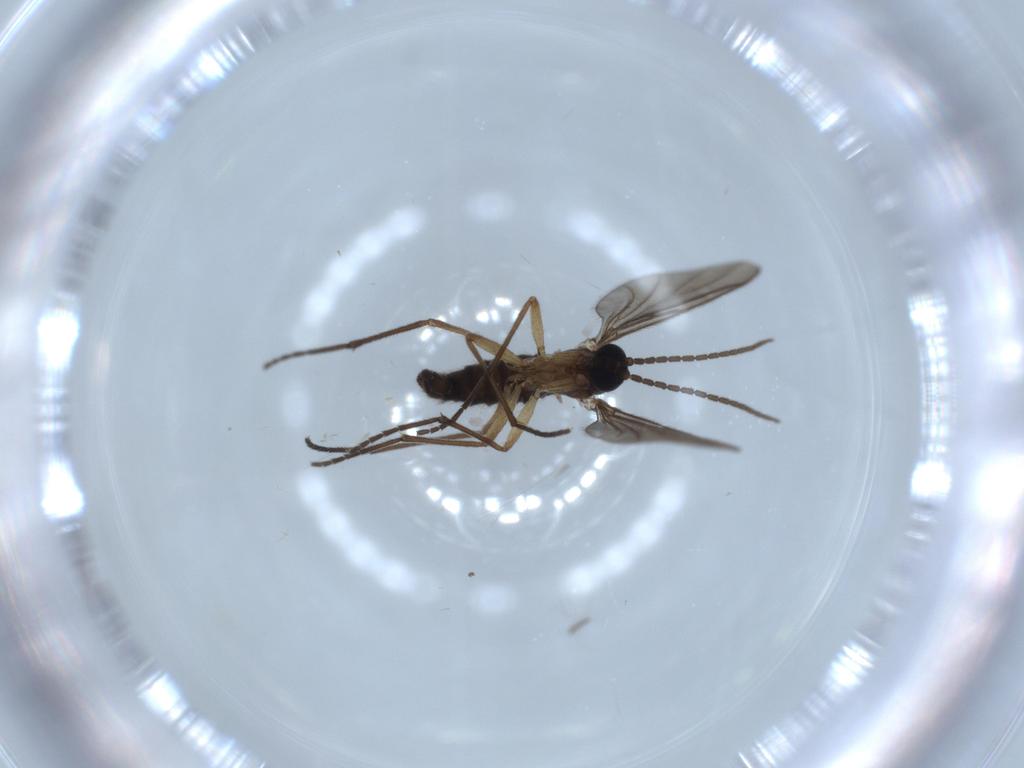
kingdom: Animalia
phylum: Arthropoda
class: Insecta
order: Diptera
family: Sciaridae
